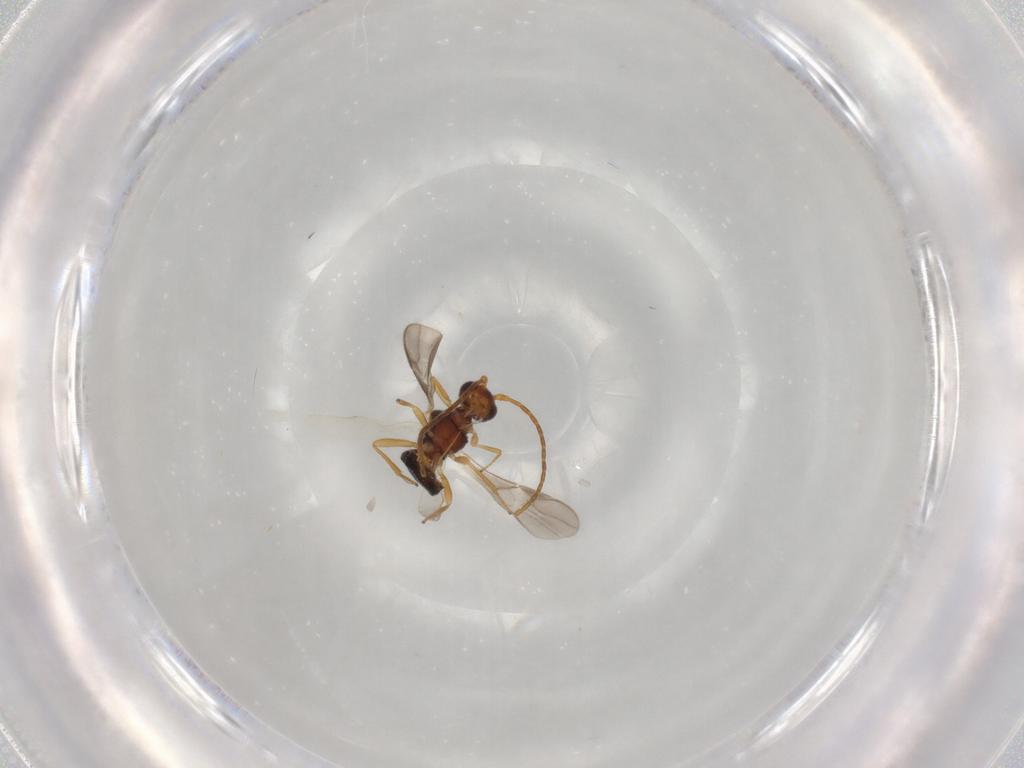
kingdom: Animalia
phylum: Arthropoda
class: Insecta
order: Hymenoptera
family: Braconidae
